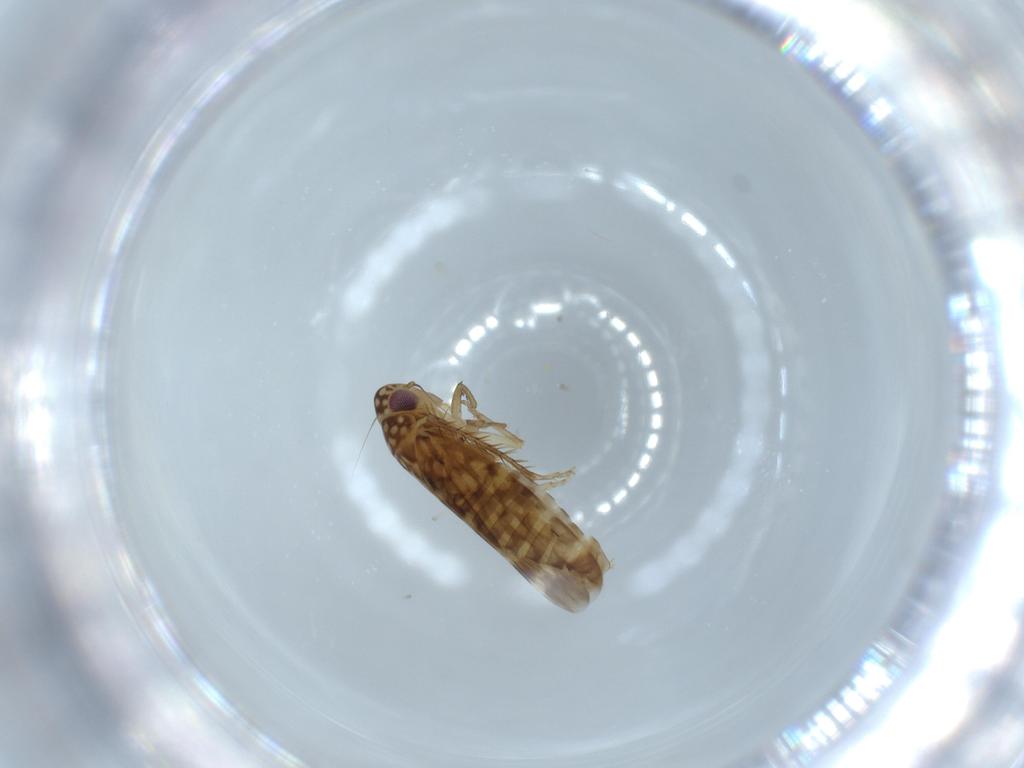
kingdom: Animalia
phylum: Arthropoda
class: Insecta
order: Hemiptera
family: Cicadellidae
